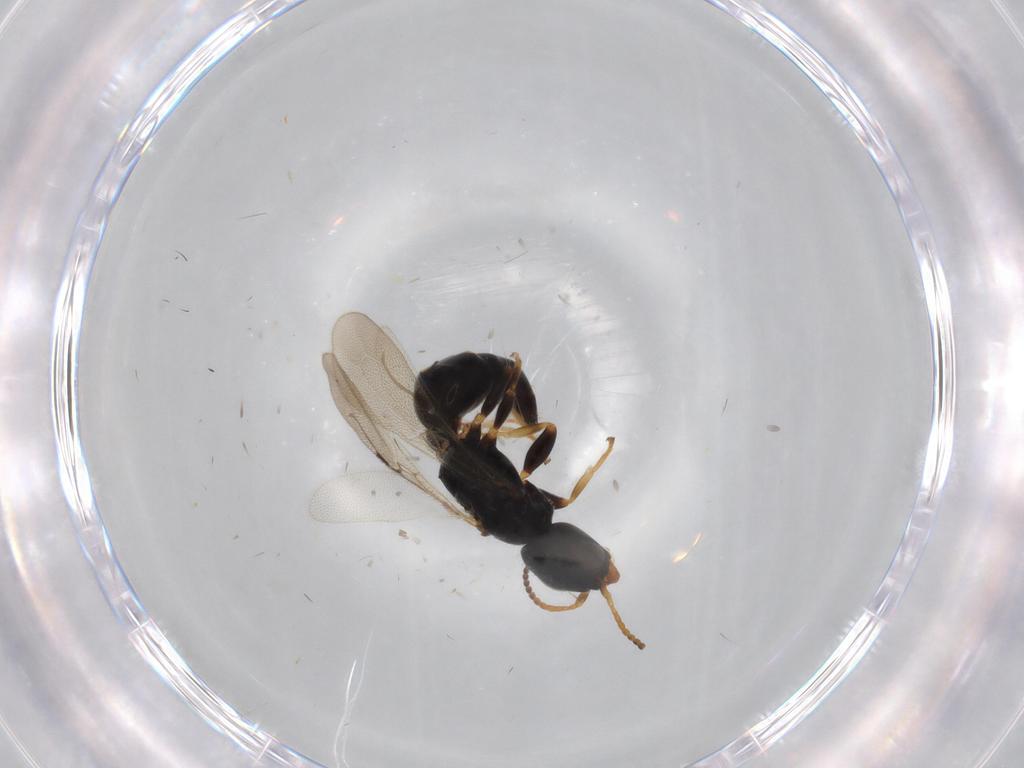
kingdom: Animalia
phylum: Arthropoda
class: Insecta
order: Hymenoptera
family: Bethylidae
